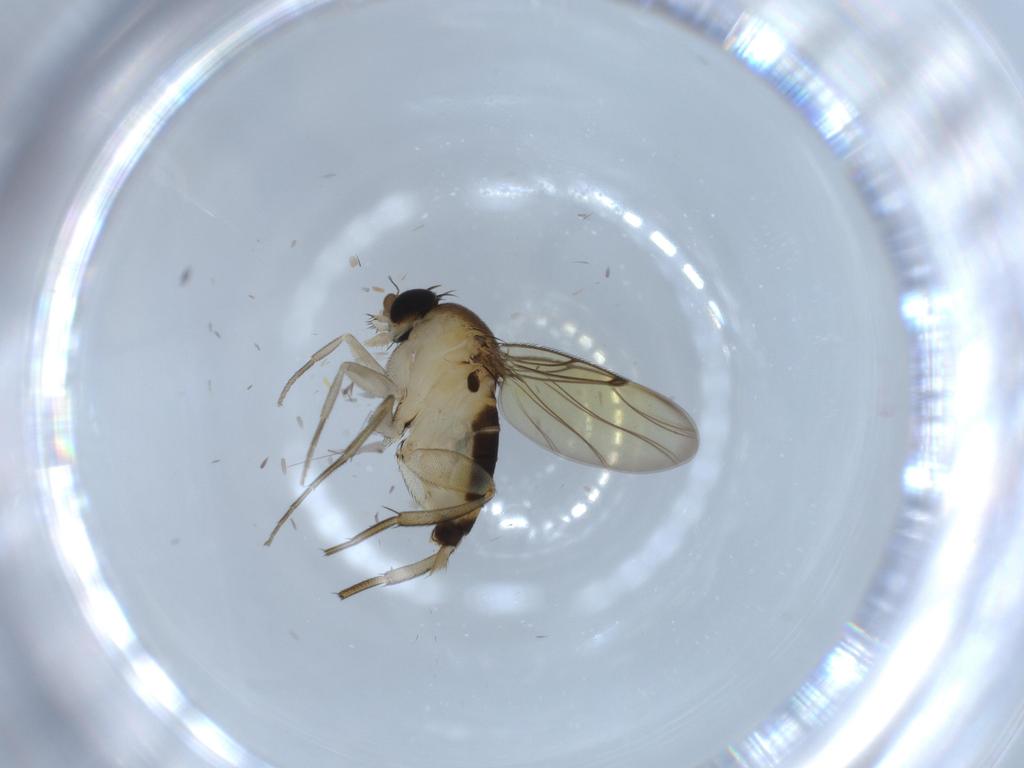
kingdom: Animalia
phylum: Arthropoda
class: Insecta
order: Diptera
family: Phoridae
